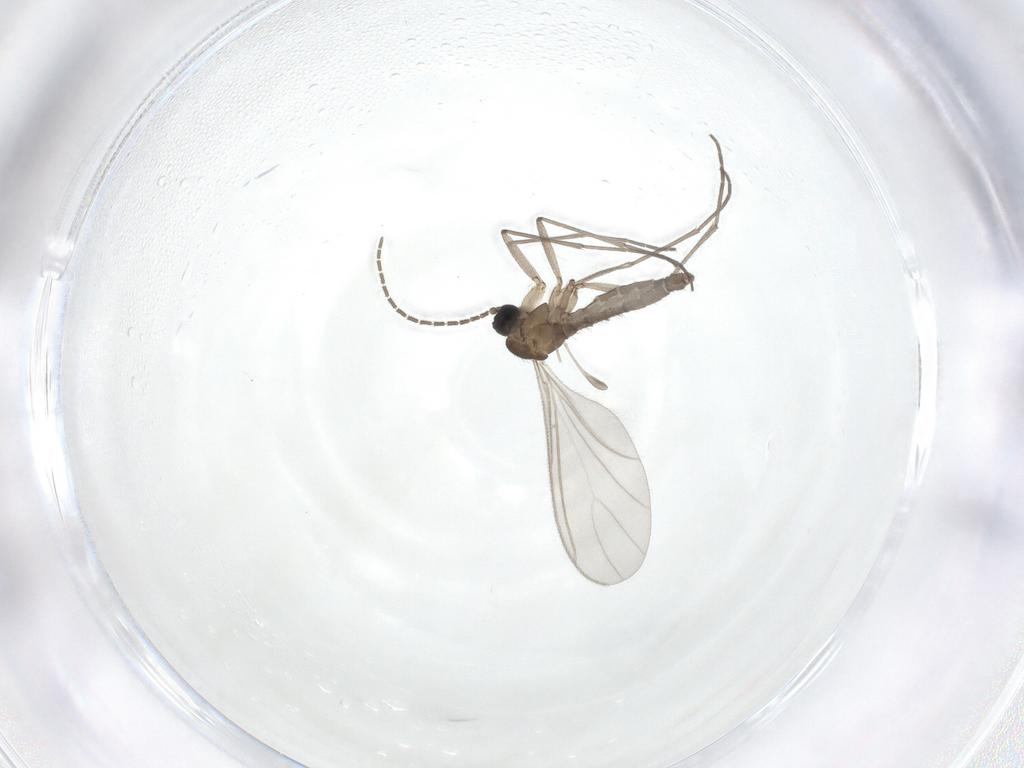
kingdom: Animalia
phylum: Arthropoda
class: Insecta
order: Diptera
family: Sciaridae
